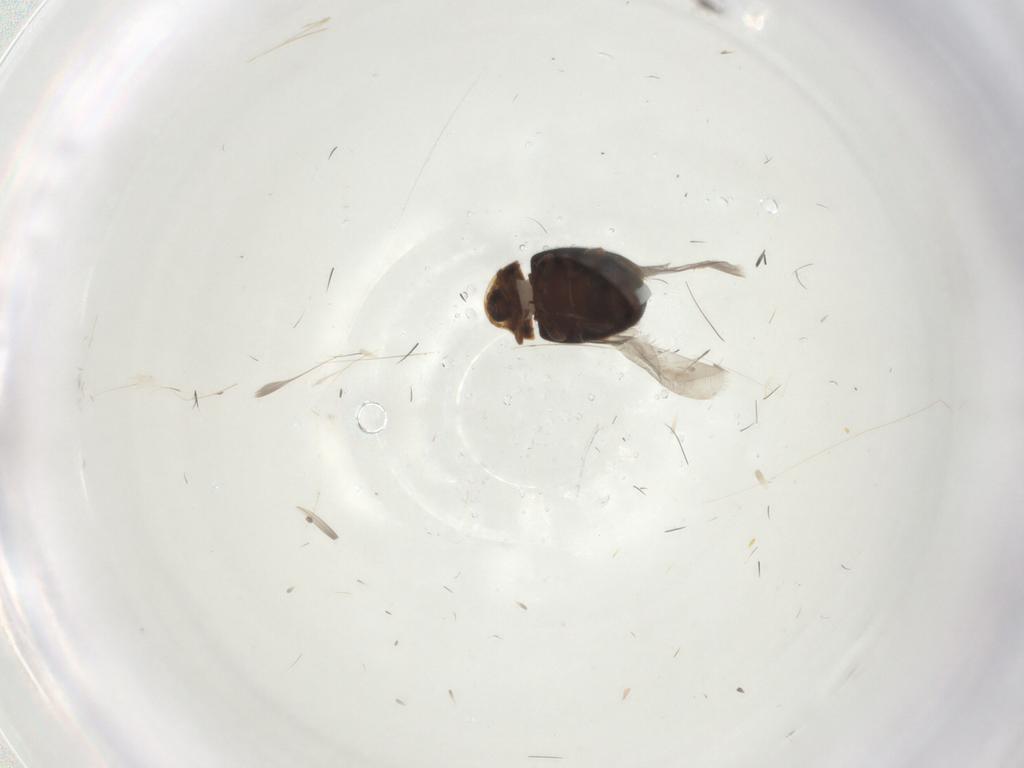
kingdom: Animalia
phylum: Arthropoda
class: Insecta
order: Coleoptera
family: Corylophidae
